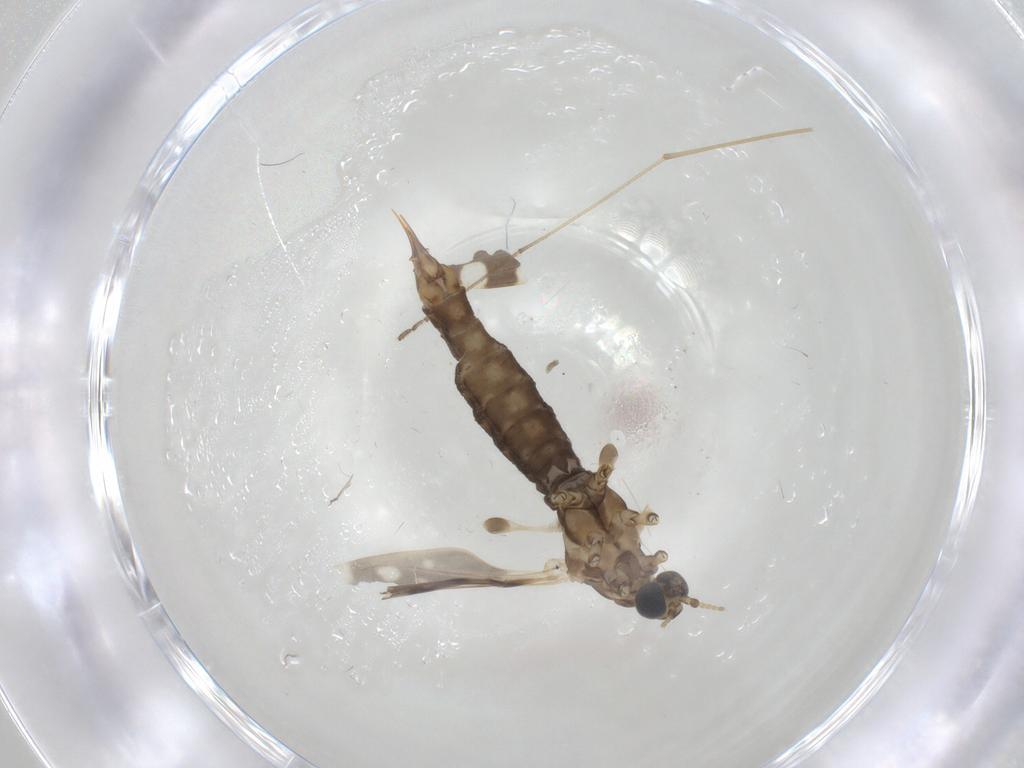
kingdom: Animalia
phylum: Arthropoda
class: Insecta
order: Diptera
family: Limoniidae
